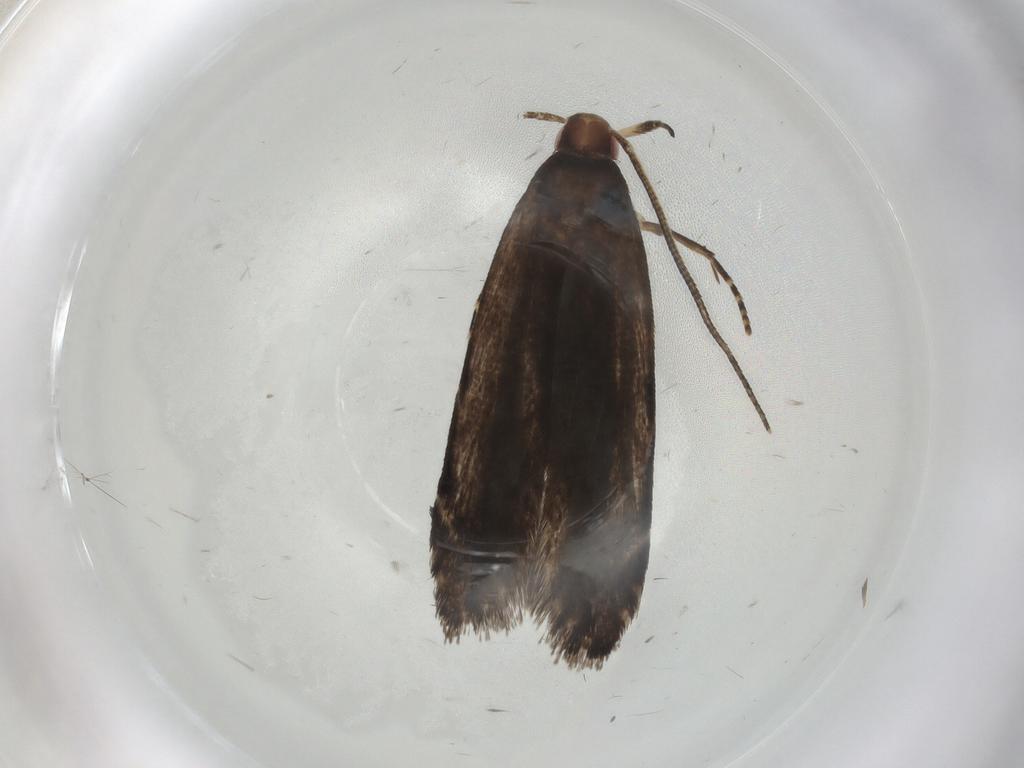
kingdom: Animalia
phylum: Arthropoda
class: Insecta
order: Lepidoptera
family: Gelechiidae
